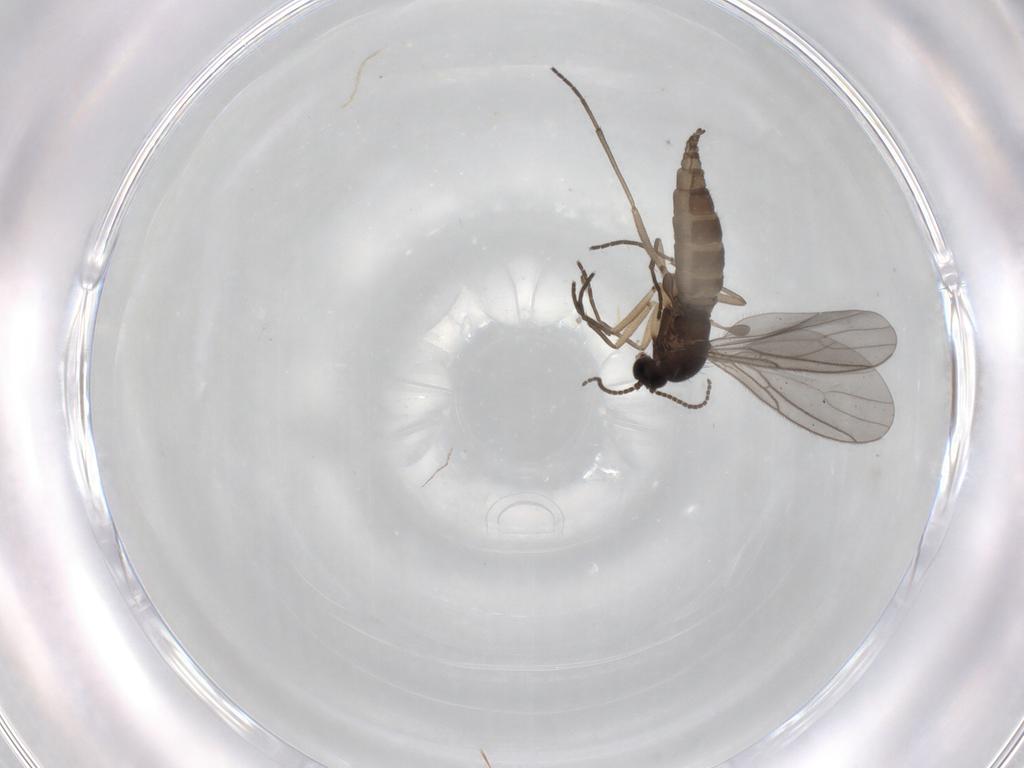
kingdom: Animalia
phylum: Arthropoda
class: Insecta
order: Diptera
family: Sciaridae
